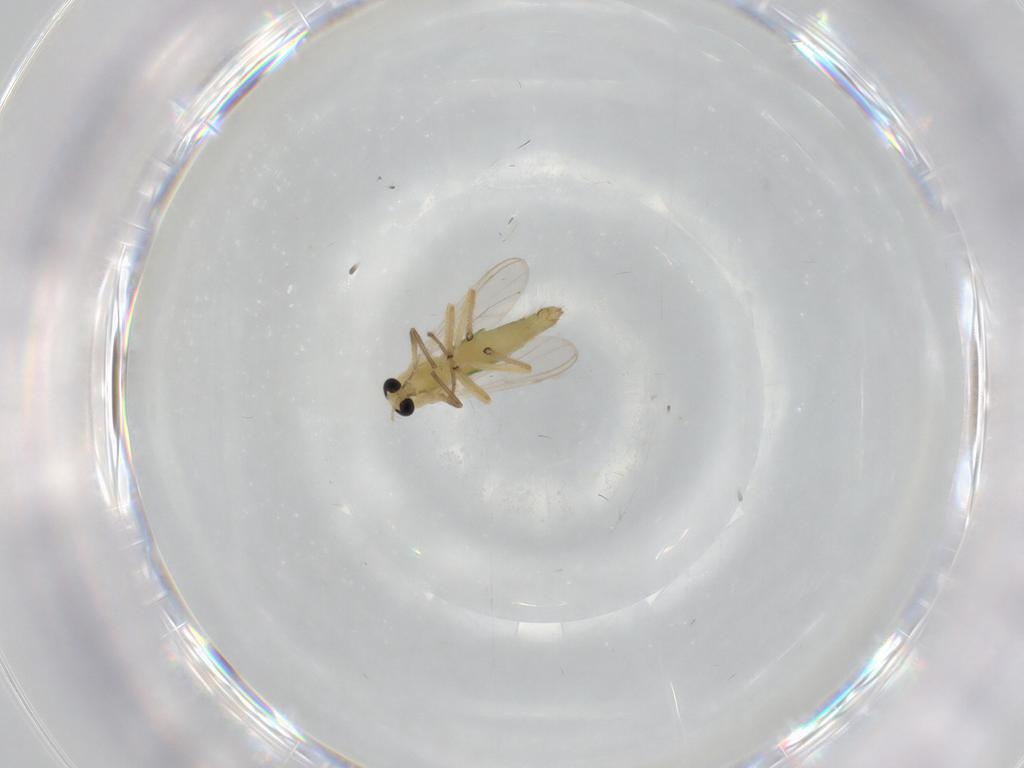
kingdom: Animalia
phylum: Arthropoda
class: Insecta
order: Diptera
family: Chironomidae
